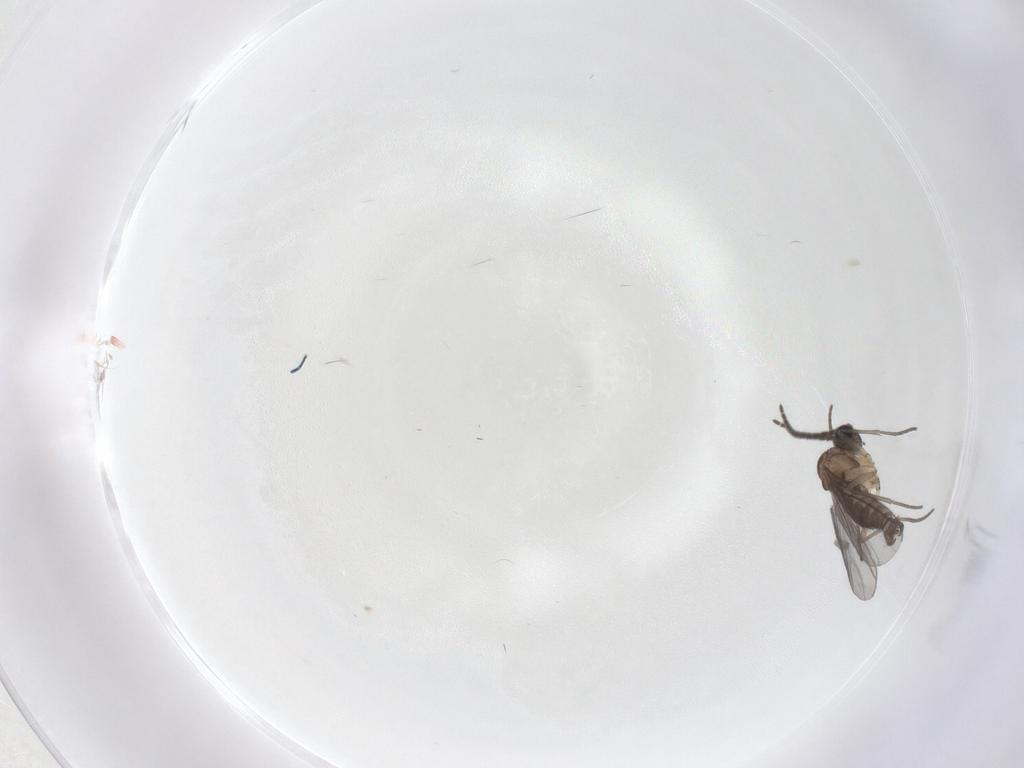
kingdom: Animalia
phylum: Arthropoda
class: Insecta
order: Diptera
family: Sciaridae
